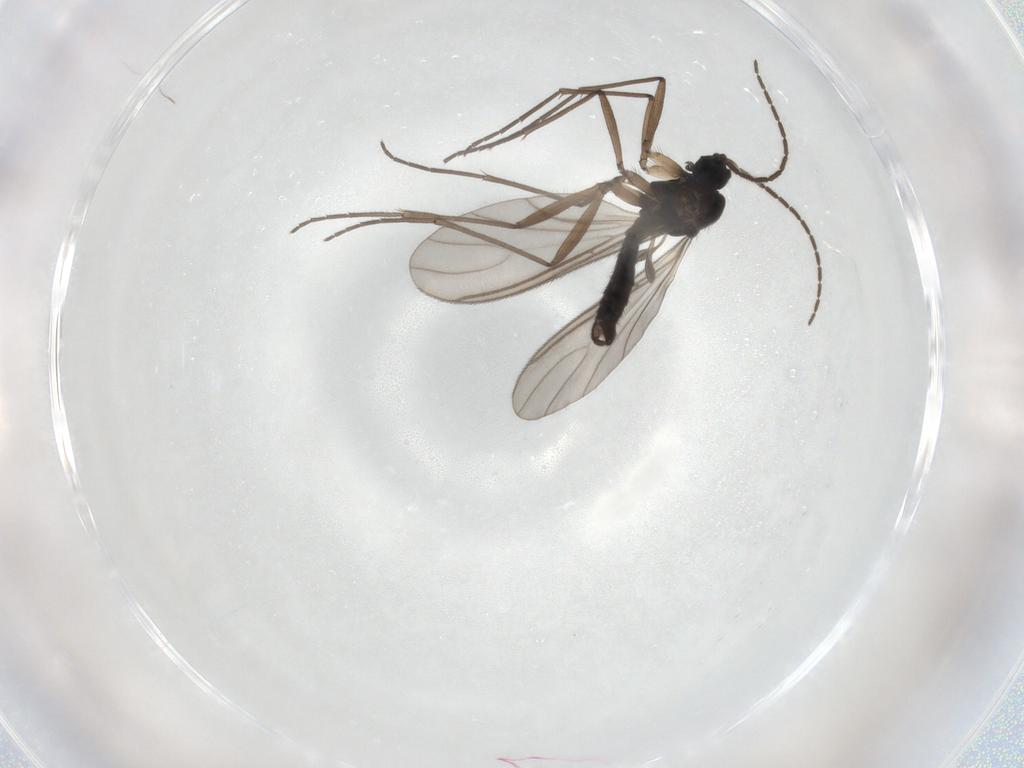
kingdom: Animalia
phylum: Arthropoda
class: Insecta
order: Diptera
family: Sciaridae
